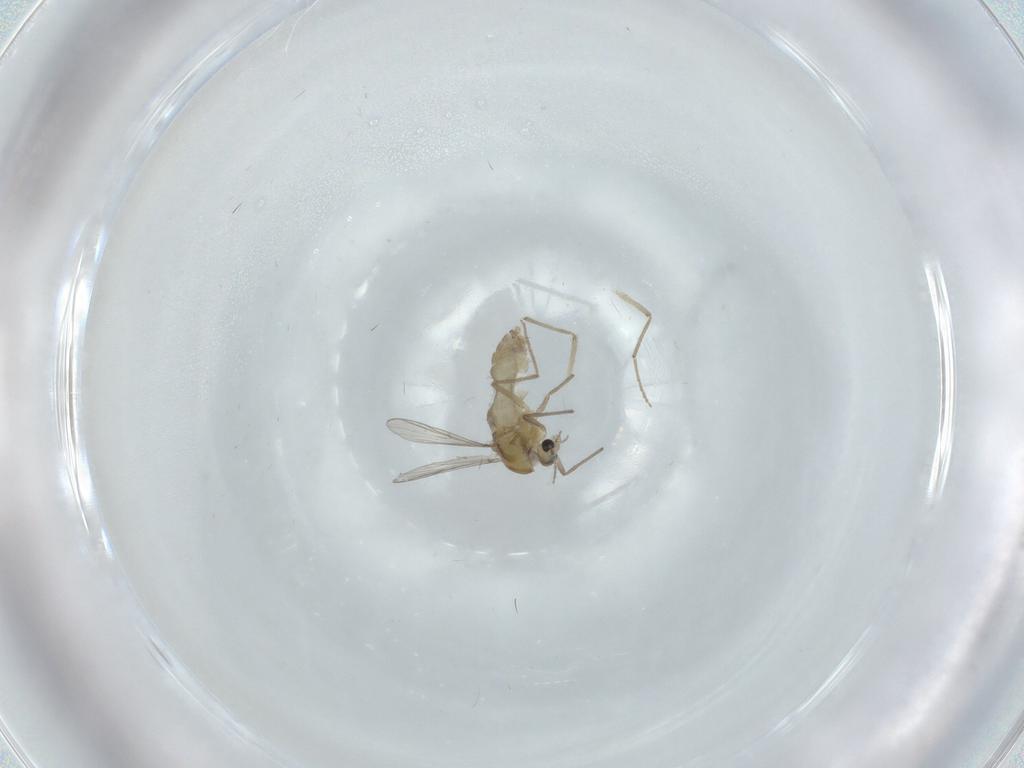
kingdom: Animalia
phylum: Arthropoda
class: Insecta
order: Diptera
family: Chironomidae
